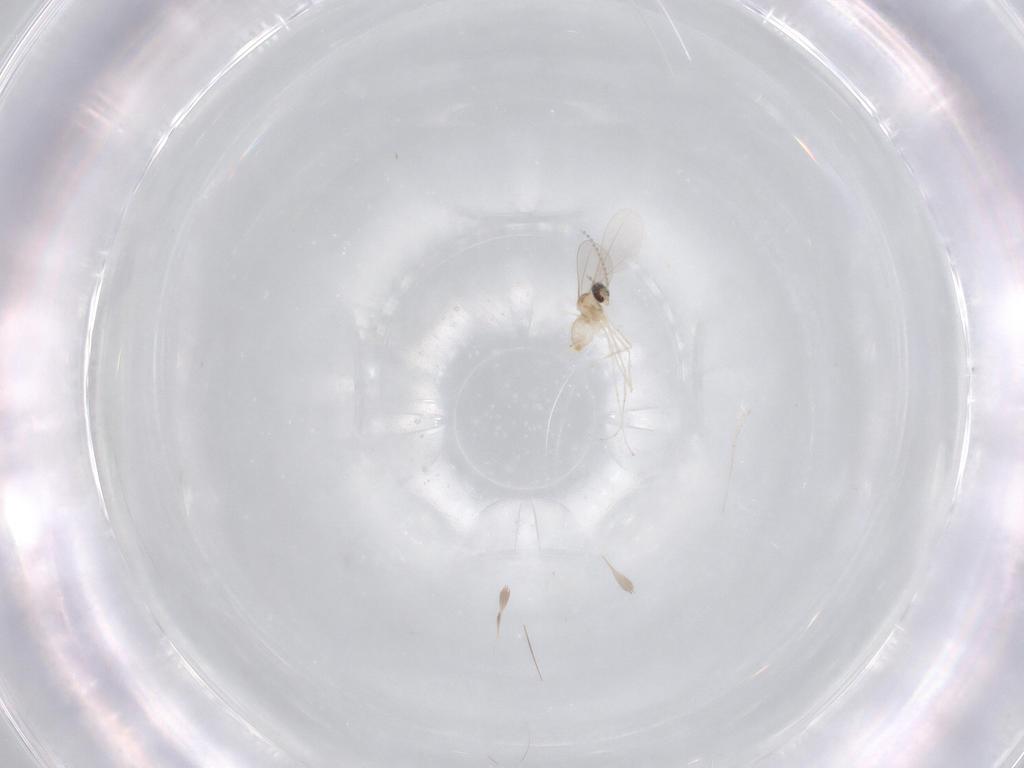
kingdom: Animalia
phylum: Arthropoda
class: Insecta
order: Diptera
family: Cecidomyiidae
